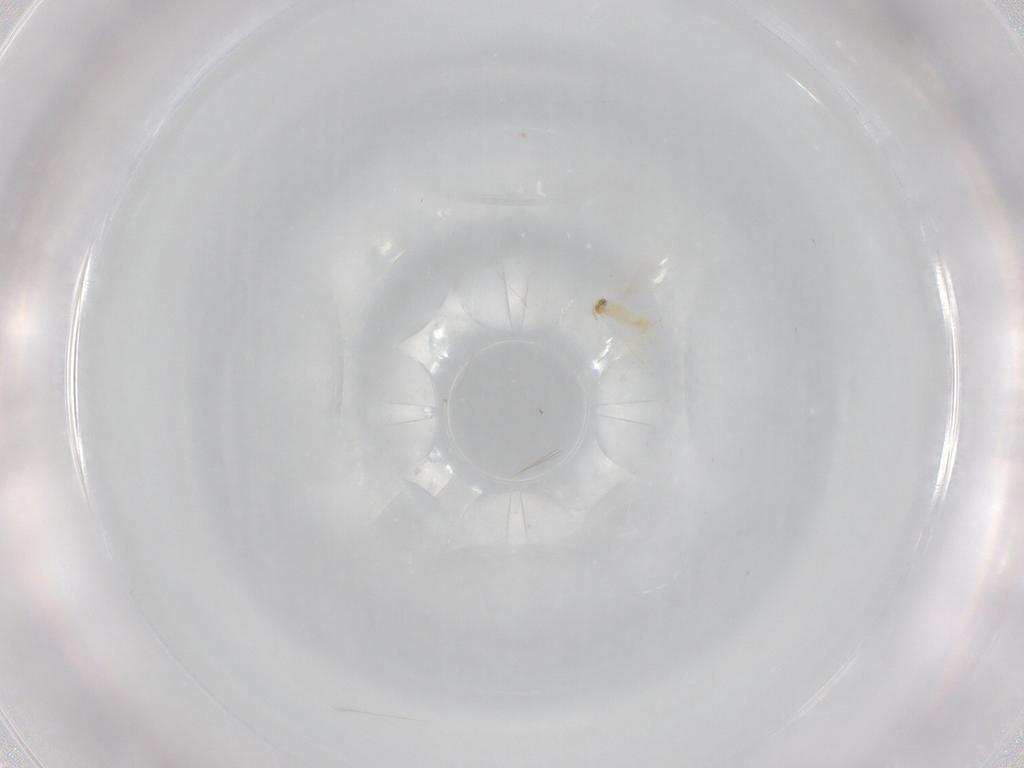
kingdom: Animalia
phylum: Arthropoda
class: Insecta
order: Hymenoptera
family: Aphelinidae
